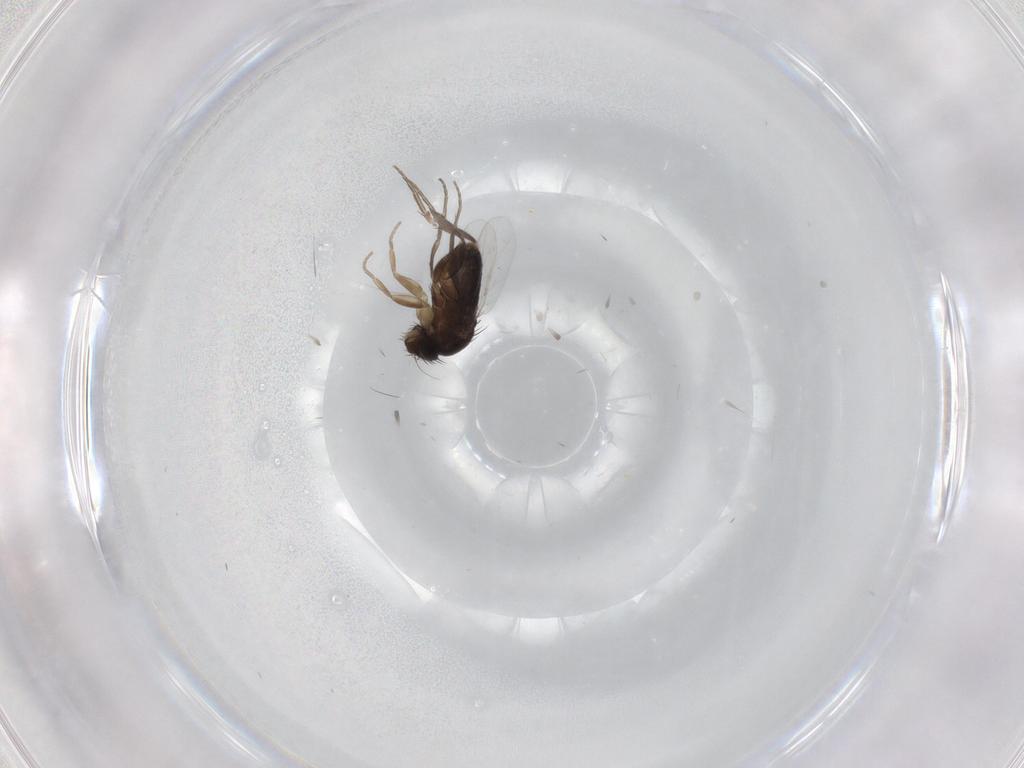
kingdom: Animalia
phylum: Arthropoda
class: Insecta
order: Diptera
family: Phoridae
